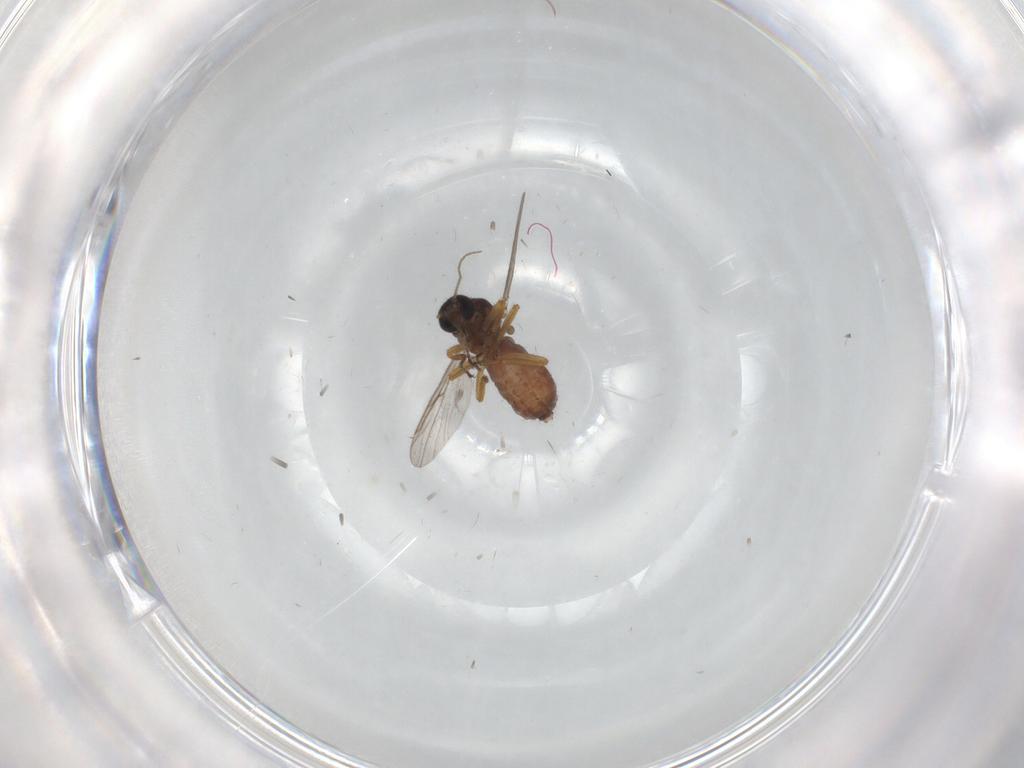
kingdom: Animalia
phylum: Arthropoda
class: Insecta
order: Diptera
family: Ceratopogonidae
